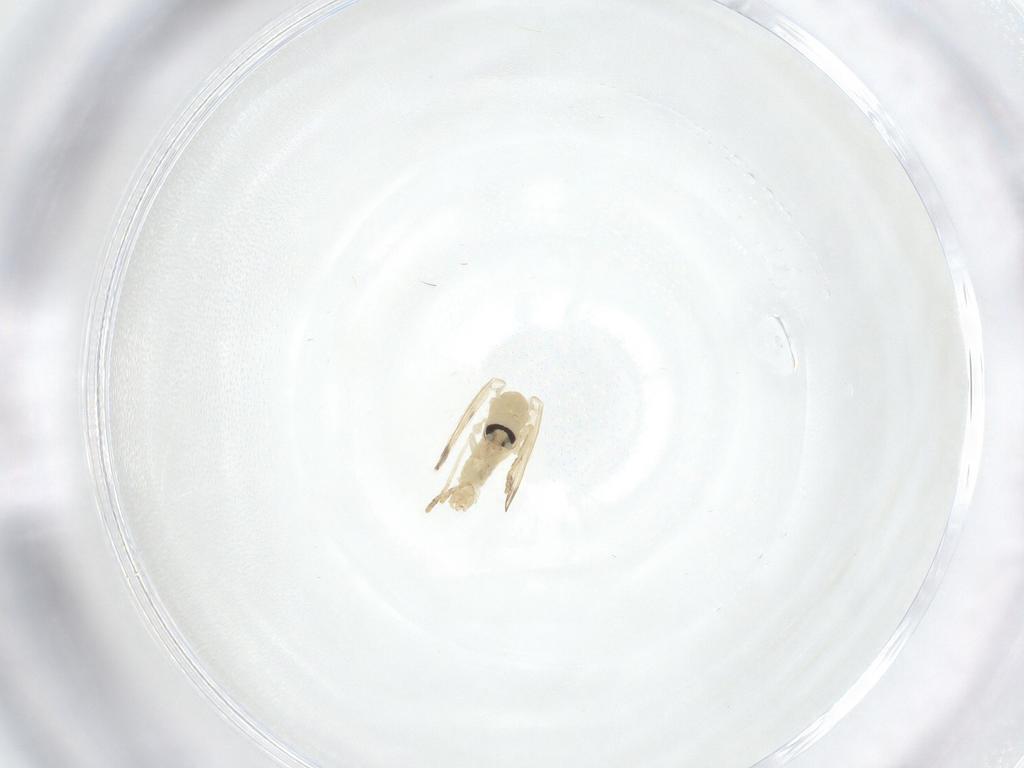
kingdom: Animalia
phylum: Arthropoda
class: Insecta
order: Diptera
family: Psychodidae
